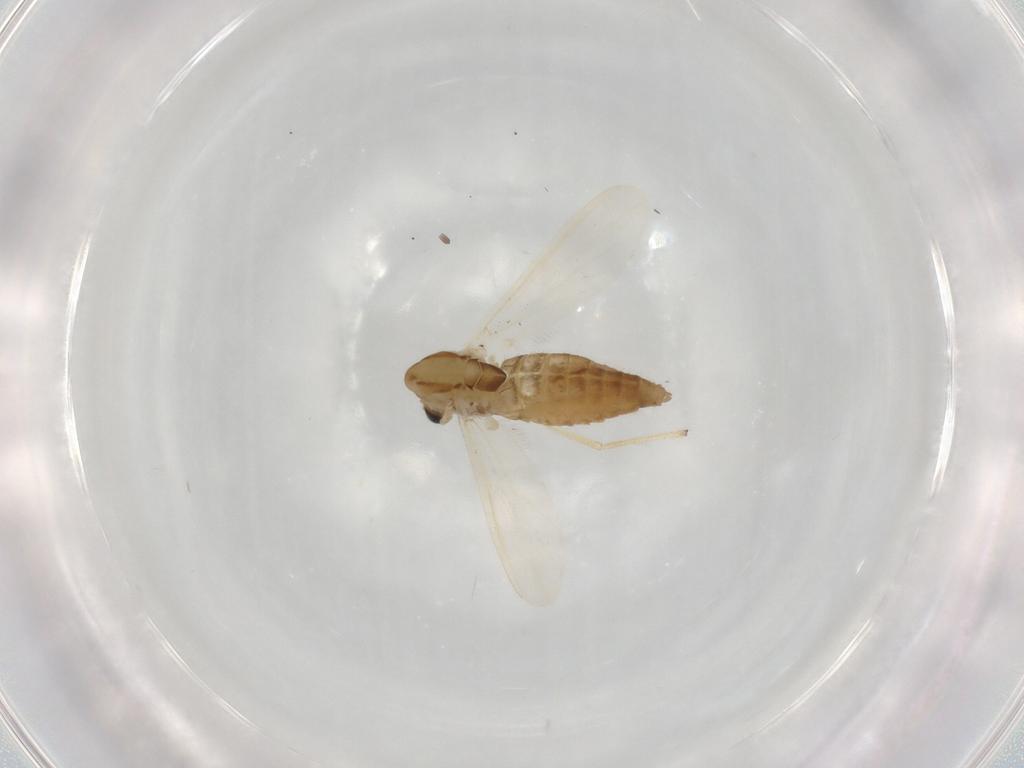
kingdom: Animalia
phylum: Arthropoda
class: Insecta
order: Diptera
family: Chironomidae
